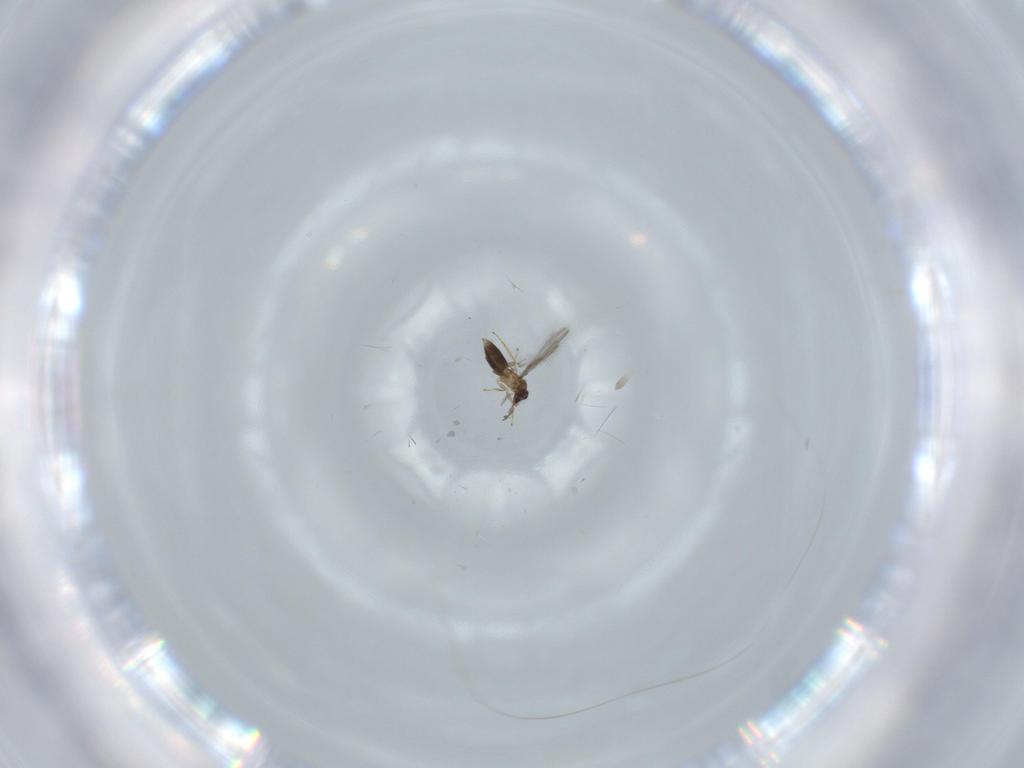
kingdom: Animalia
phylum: Arthropoda
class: Insecta
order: Hymenoptera
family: Mymaridae
